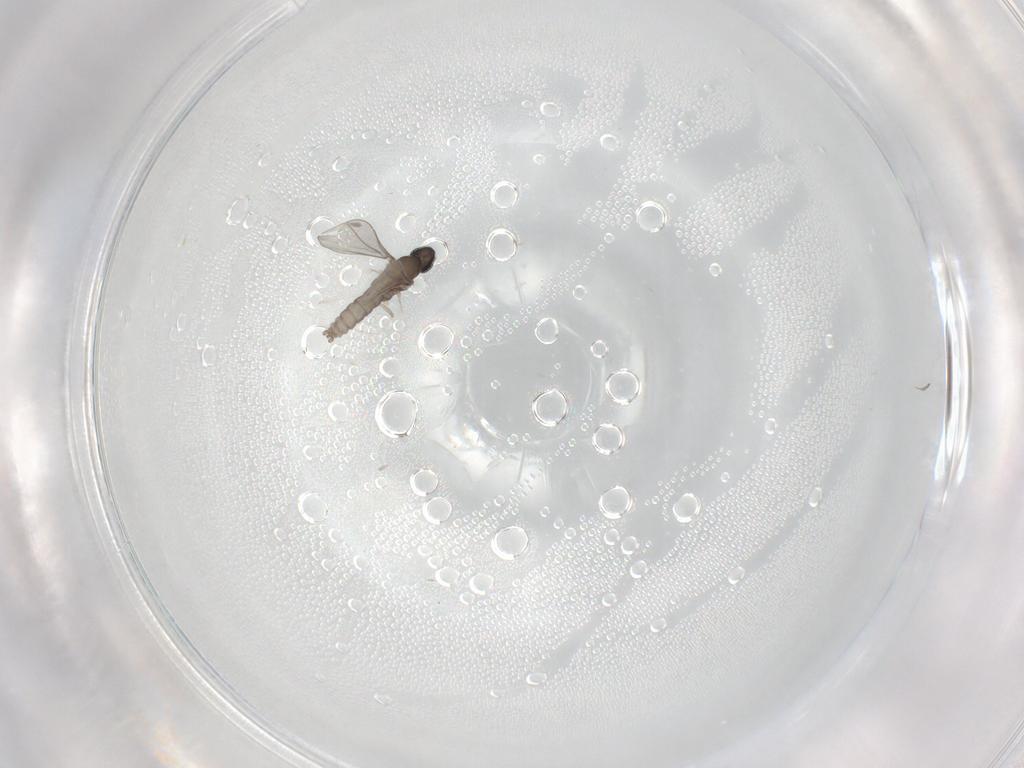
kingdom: Animalia
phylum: Arthropoda
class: Insecta
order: Diptera
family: Cecidomyiidae
